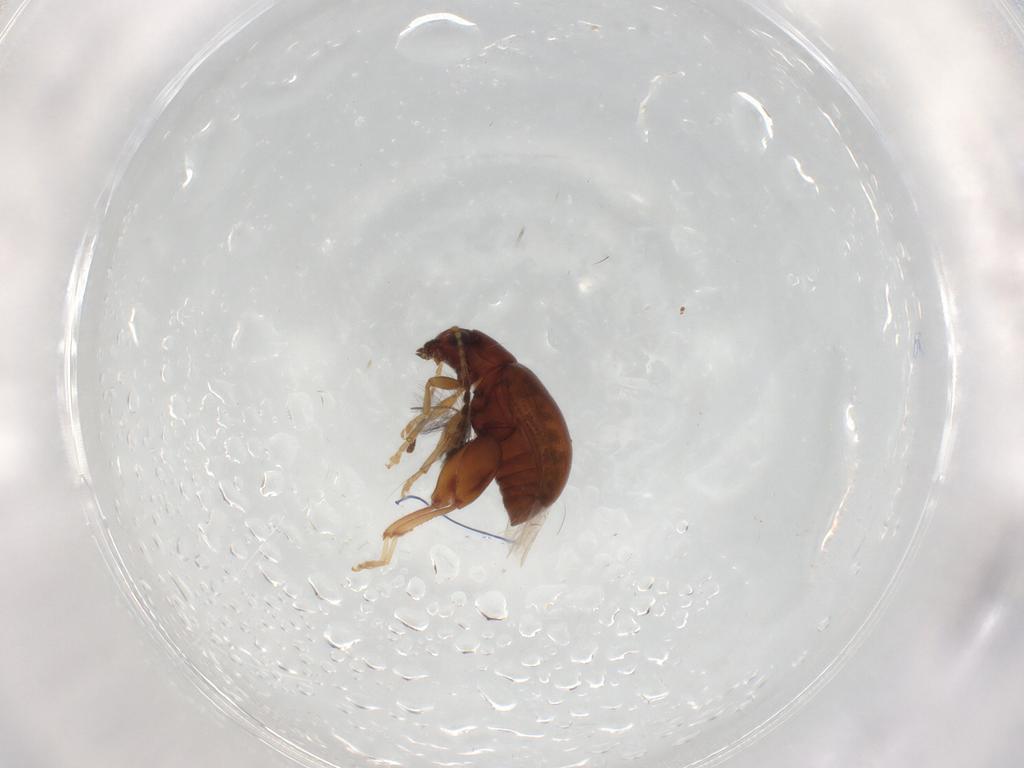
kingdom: Animalia
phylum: Arthropoda
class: Insecta
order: Coleoptera
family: Chrysomelidae
